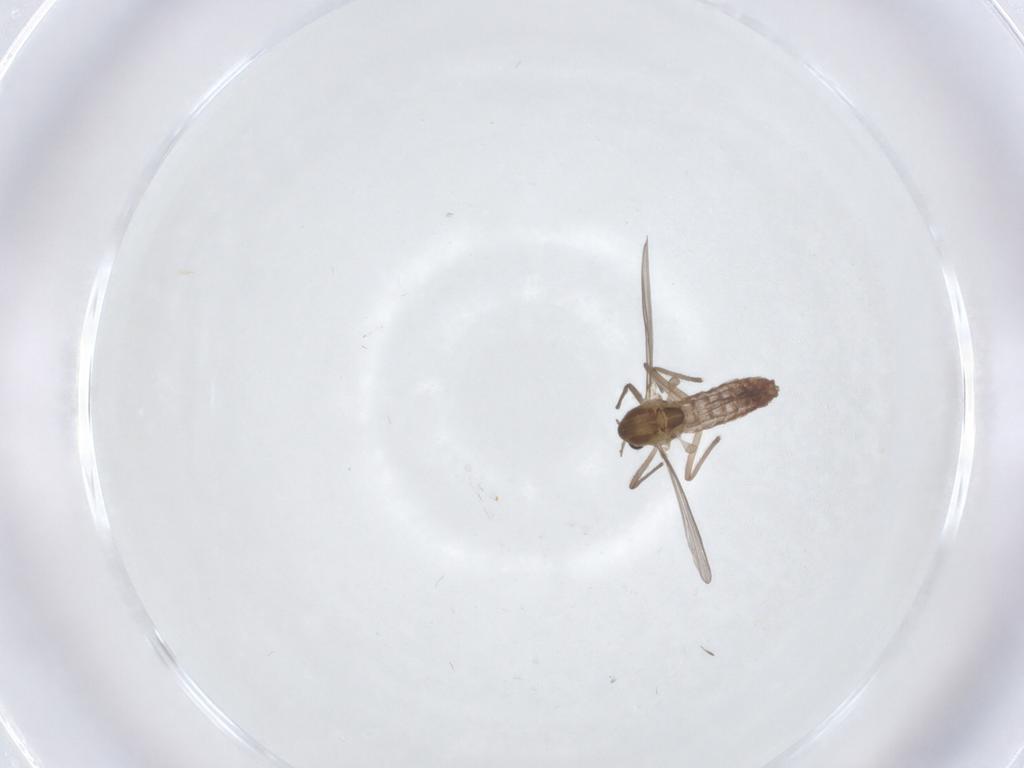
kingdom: Animalia
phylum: Arthropoda
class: Insecta
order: Diptera
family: Chironomidae
